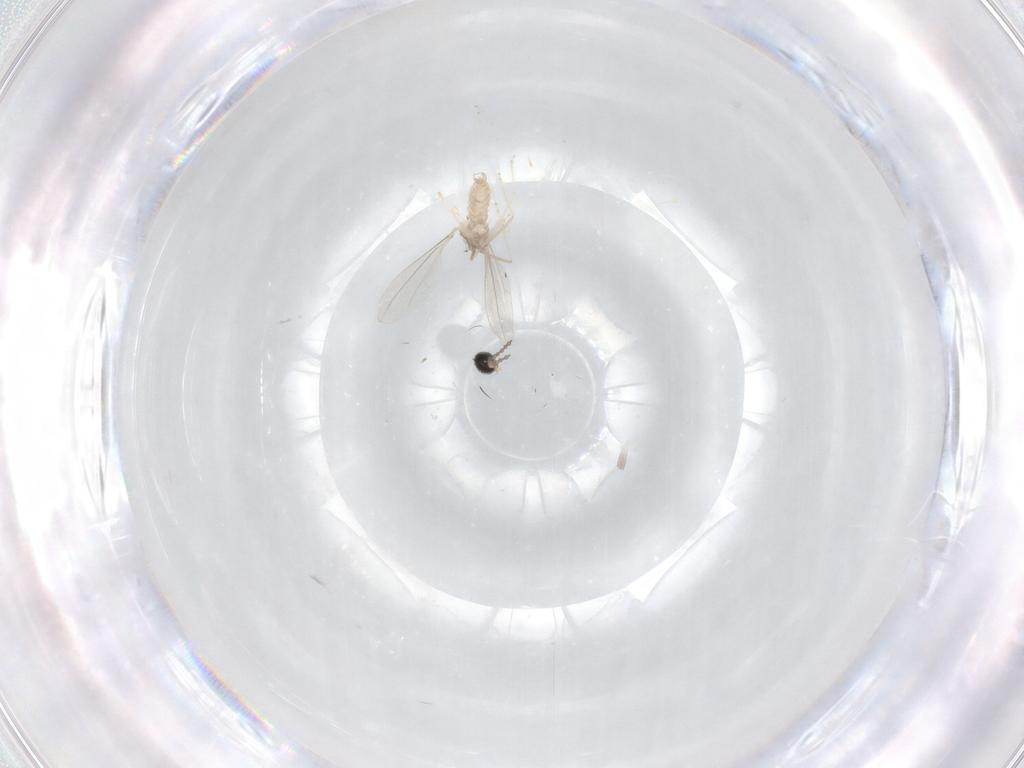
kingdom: Animalia
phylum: Arthropoda
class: Insecta
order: Diptera
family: Cecidomyiidae
